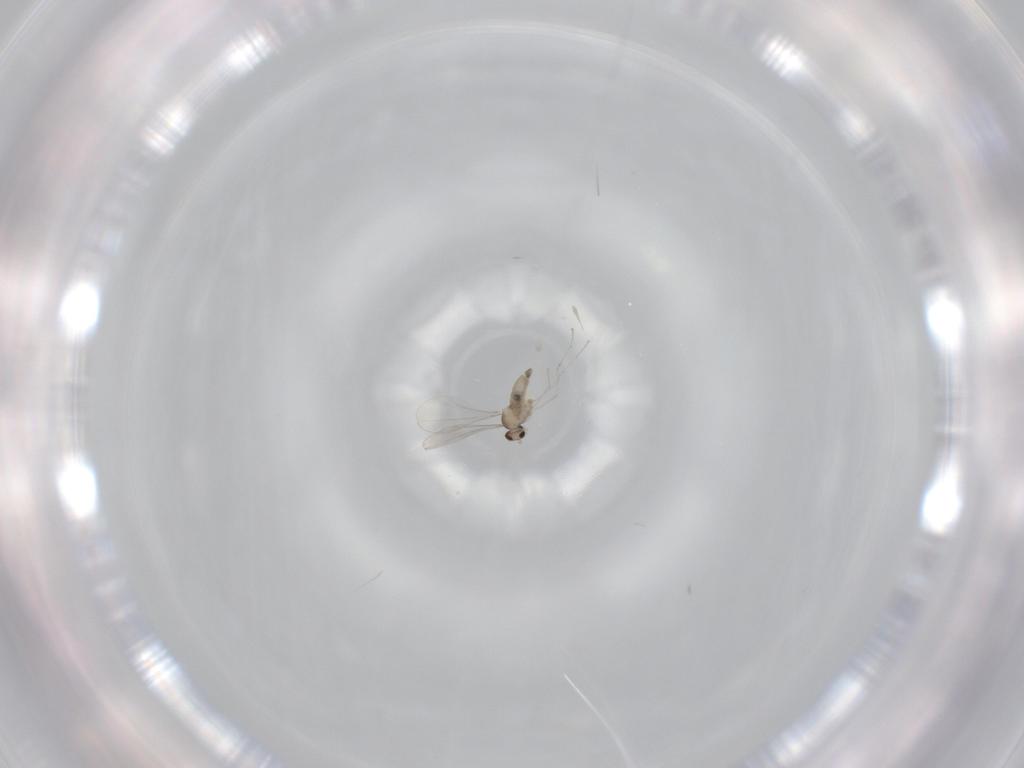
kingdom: Animalia
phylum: Arthropoda
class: Insecta
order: Diptera
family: Cecidomyiidae
